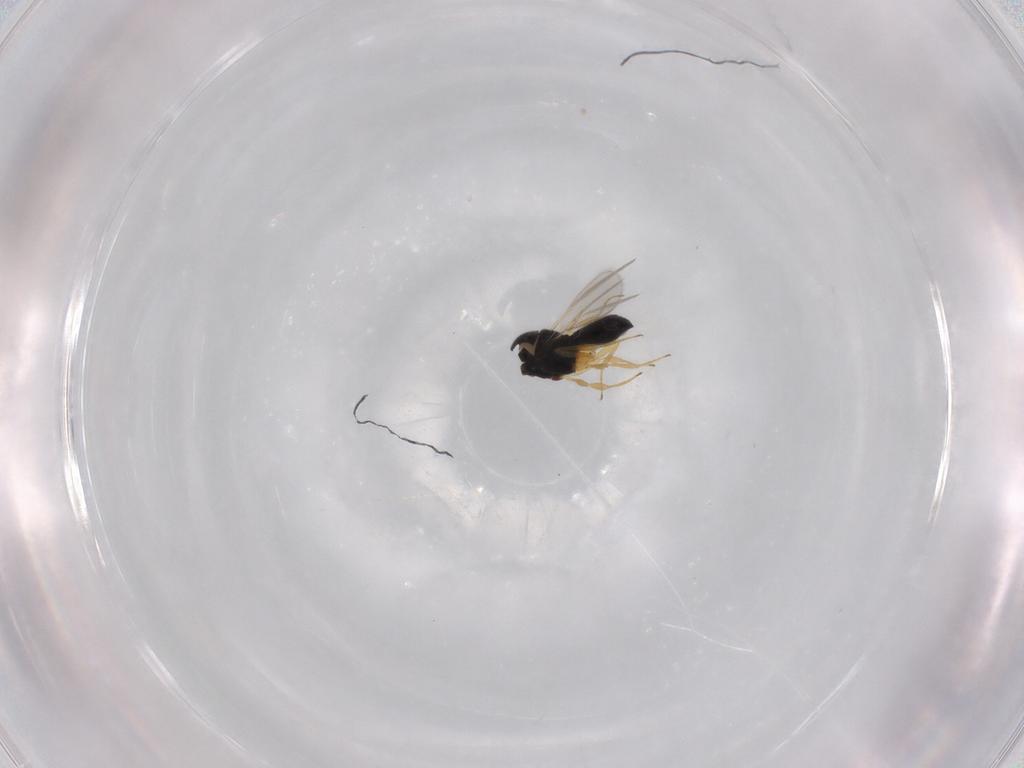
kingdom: Animalia
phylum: Arthropoda
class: Insecta
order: Hymenoptera
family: Scelionidae
